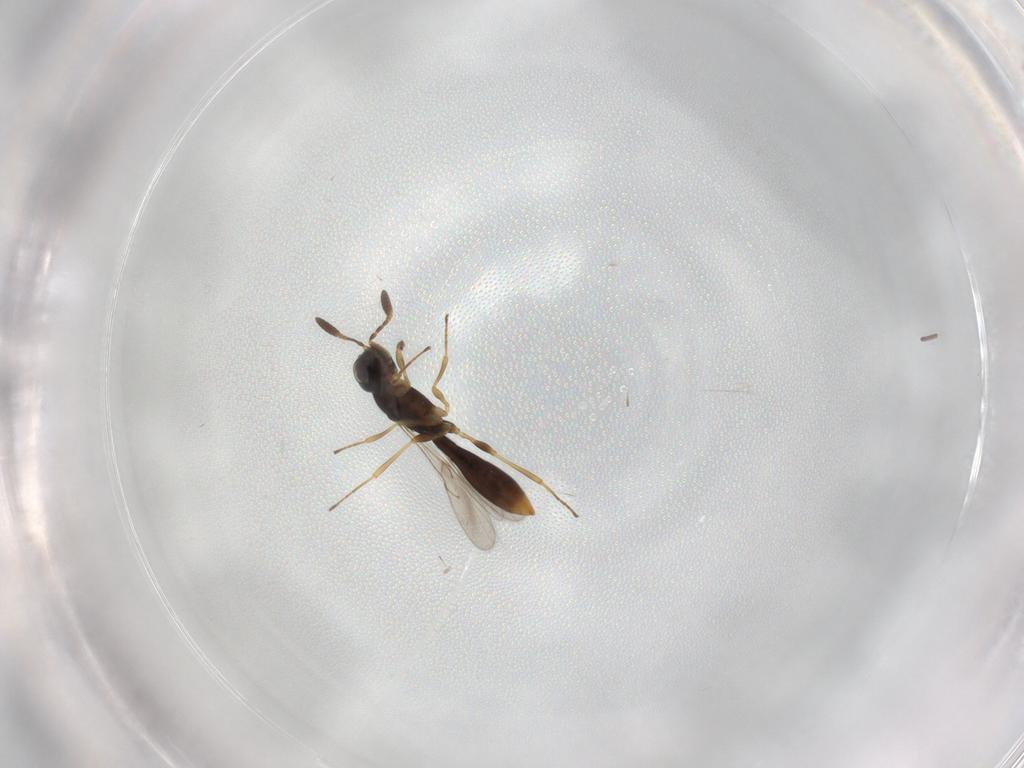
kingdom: Animalia
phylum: Arthropoda
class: Insecta
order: Hymenoptera
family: Scelionidae
